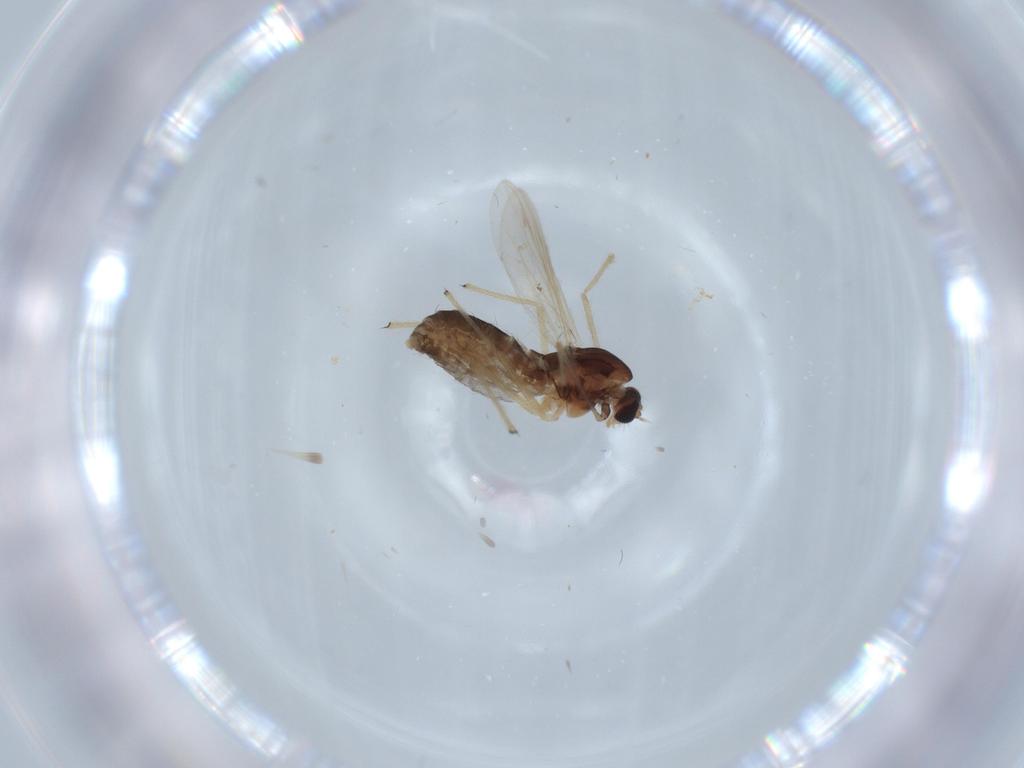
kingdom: Animalia
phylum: Arthropoda
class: Insecta
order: Diptera
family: Chironomidae
